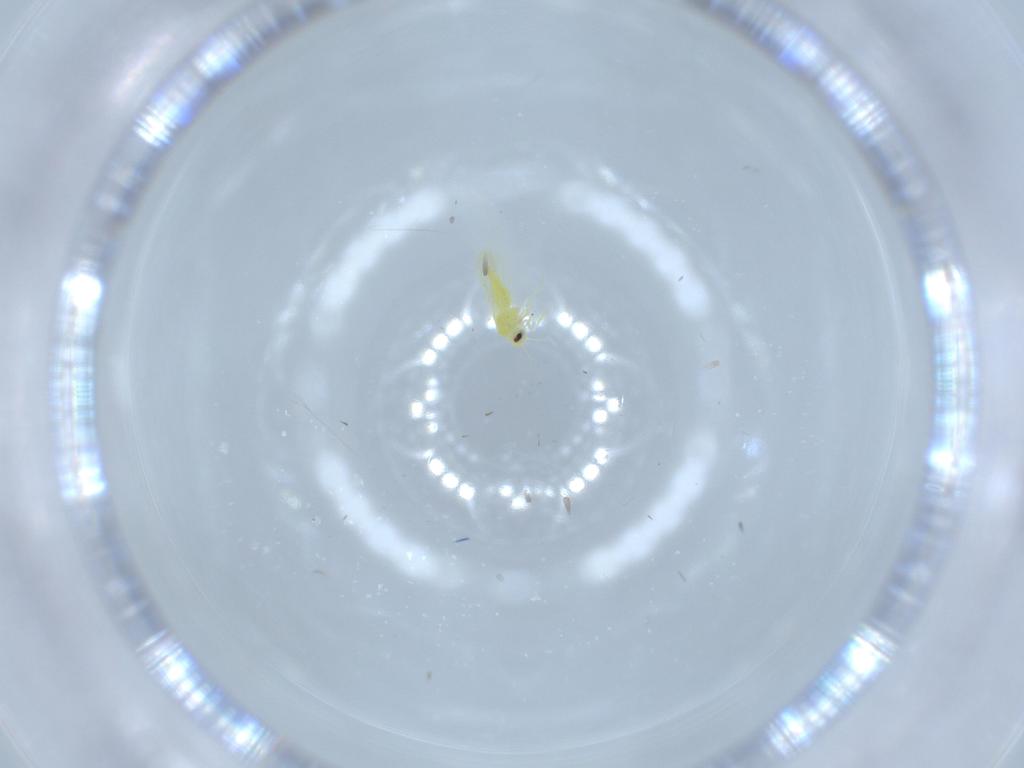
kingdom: Animalia
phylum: Arthropoda
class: Insecta
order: Hemiptera
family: Aleyrodidae
